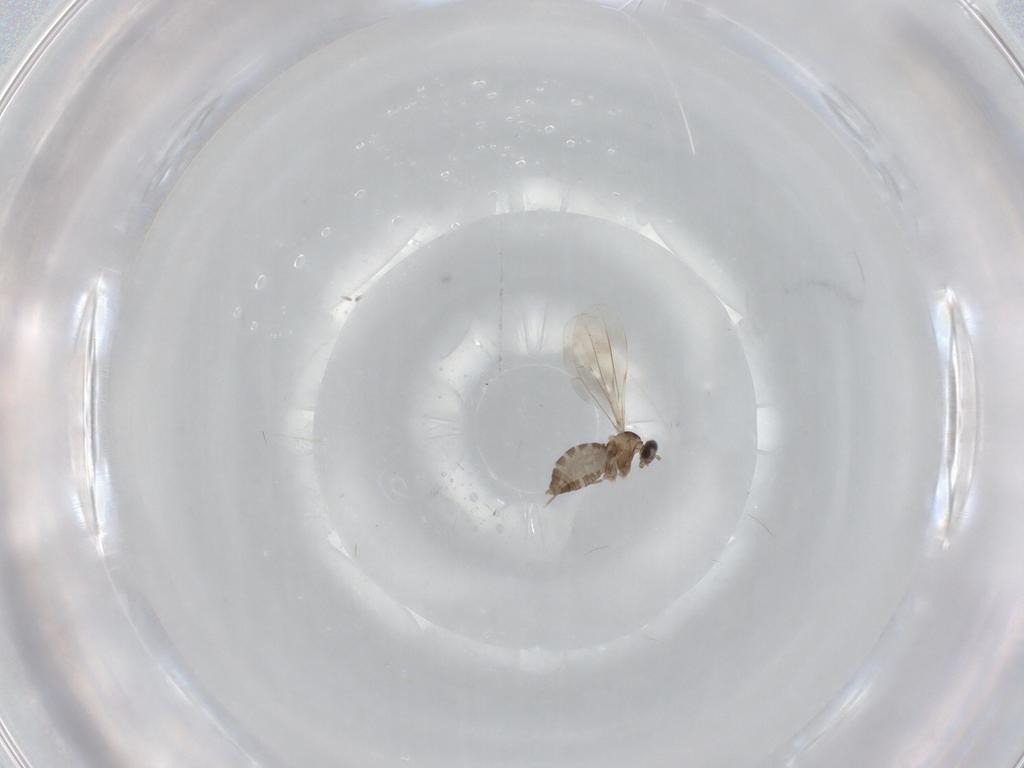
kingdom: Animalia
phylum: Arthropoda
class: Insecta
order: Diptera
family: Cecidomyiidae
